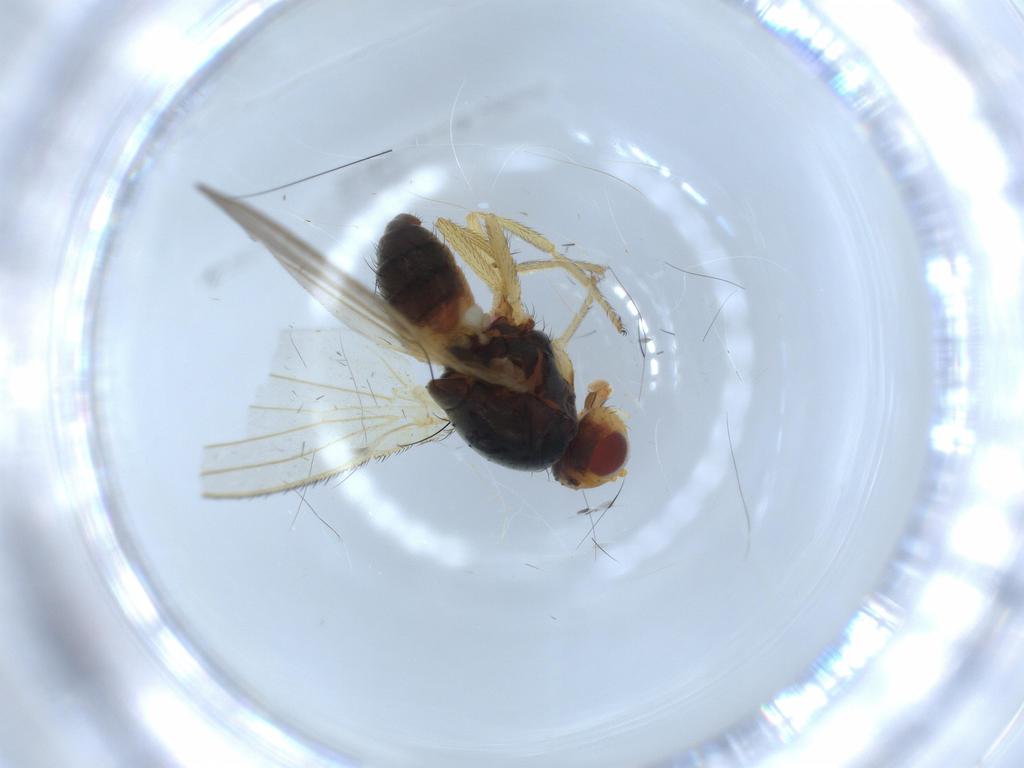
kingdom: Animalia
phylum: Arthropoda
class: Insecta
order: Diptera
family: Heleomyzidae
